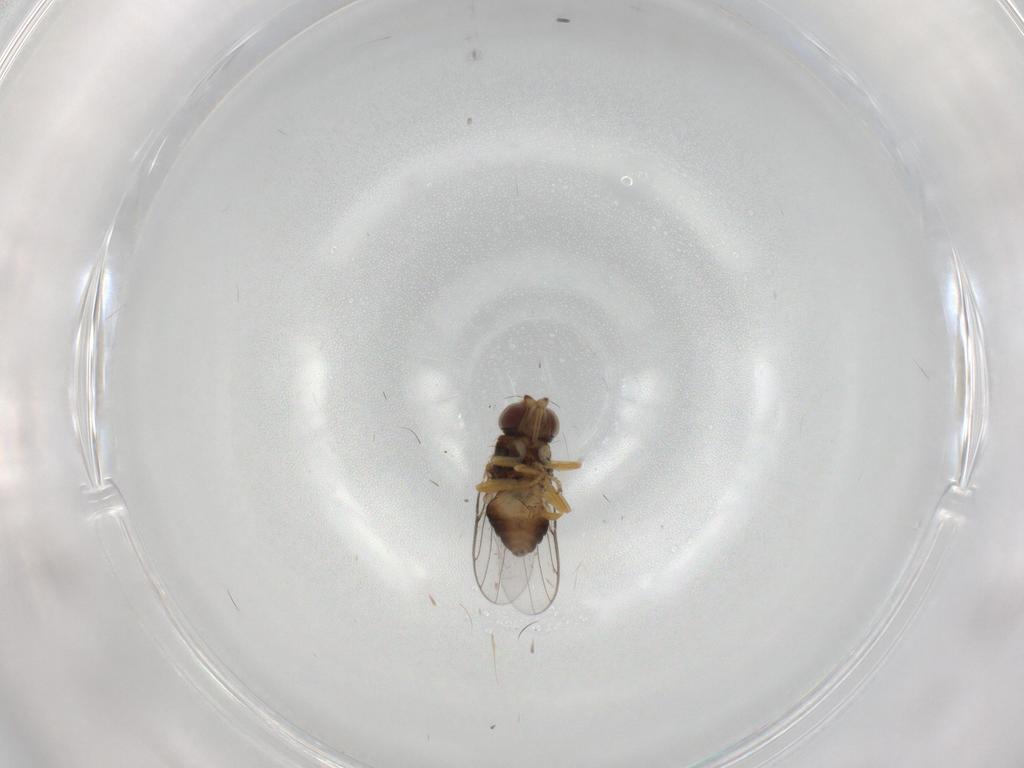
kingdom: Animalia
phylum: Arthropoda
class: Insecta
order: Diptera
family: Chloropidae
